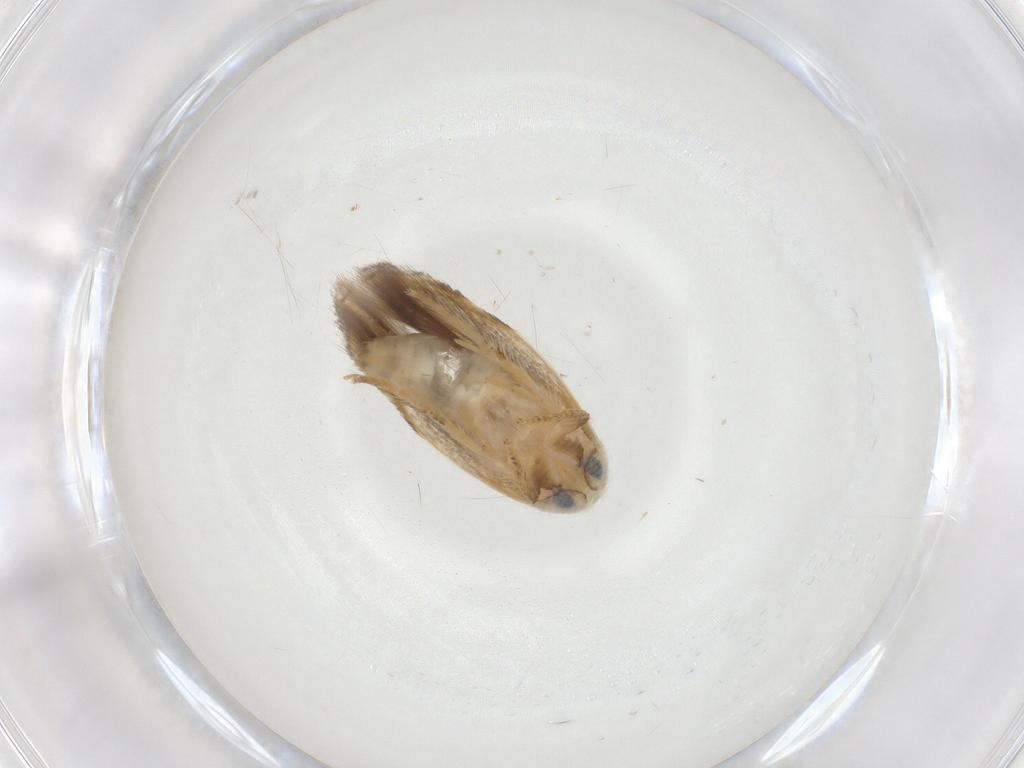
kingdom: Animalia
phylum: Arthropoda
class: Insecta
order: Lepidoptera
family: Opostegidae
